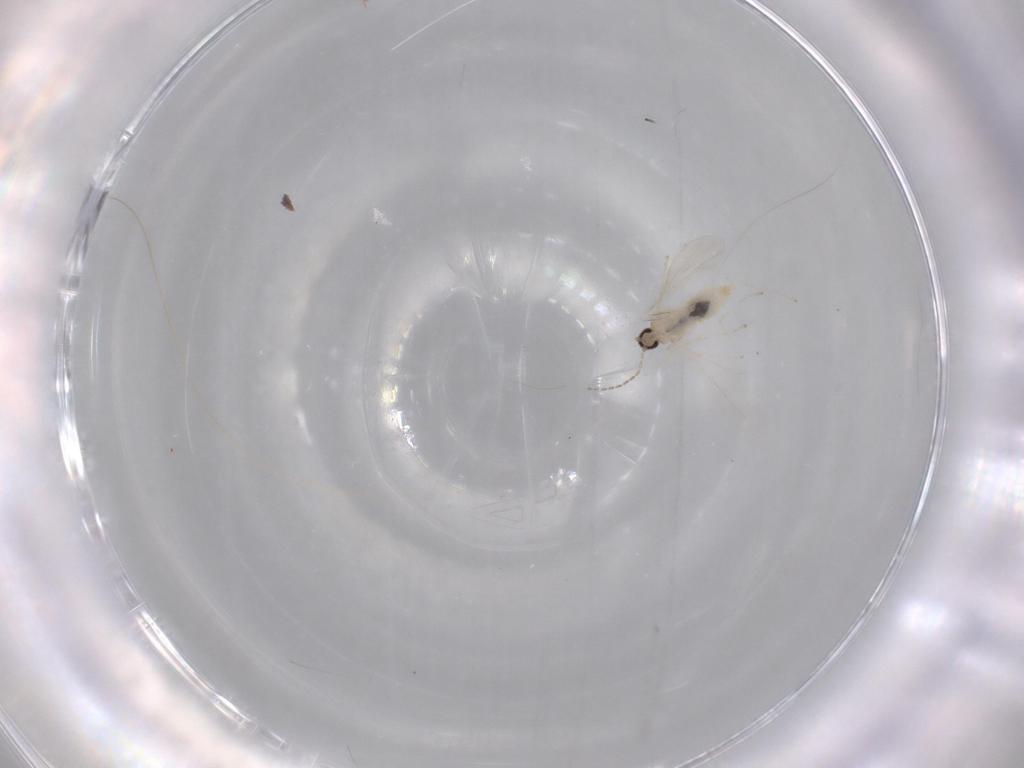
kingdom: Animalia
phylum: Arthropoda
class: Insecta
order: Diptera
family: Cecidomyiidae
